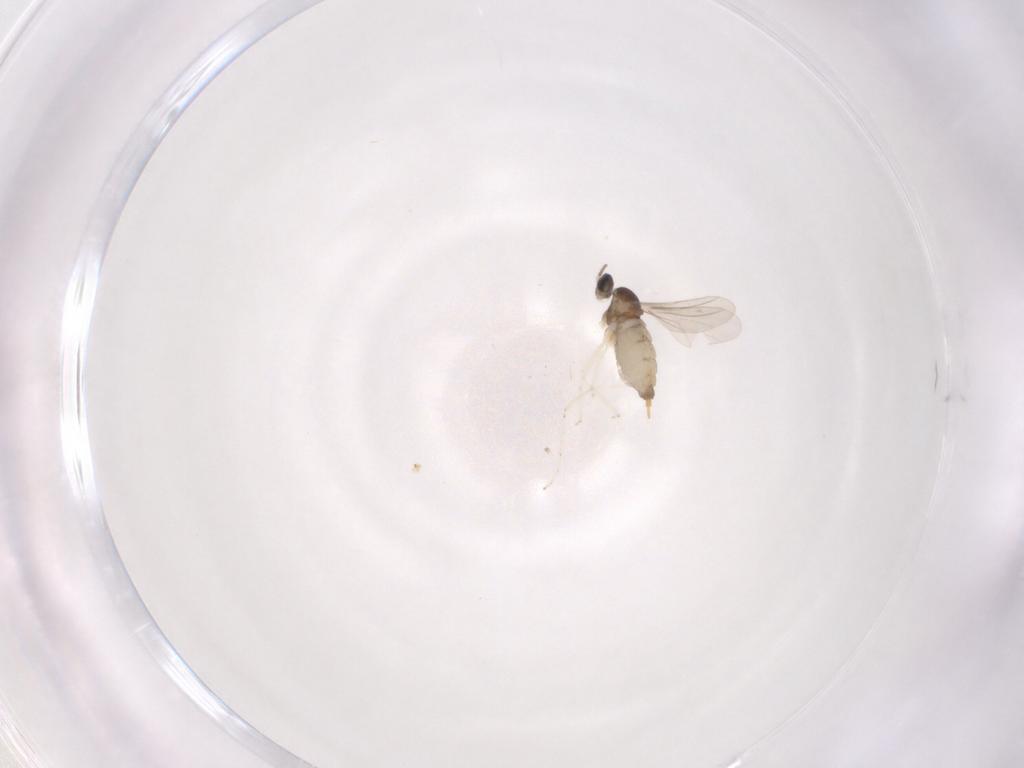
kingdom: Animalia
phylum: Arthropoda
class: Insecta
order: Diptera
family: Cecidomyiidae
